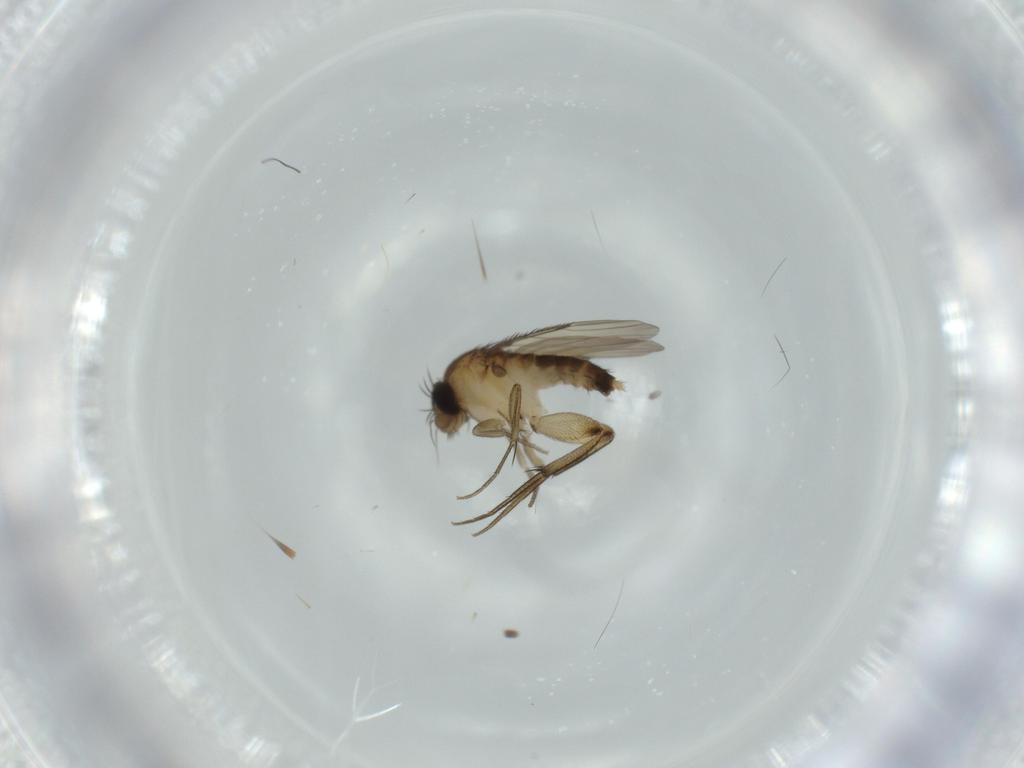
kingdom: Animalia
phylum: Arthropoda
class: Insecta
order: Diptera
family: Phoridae
